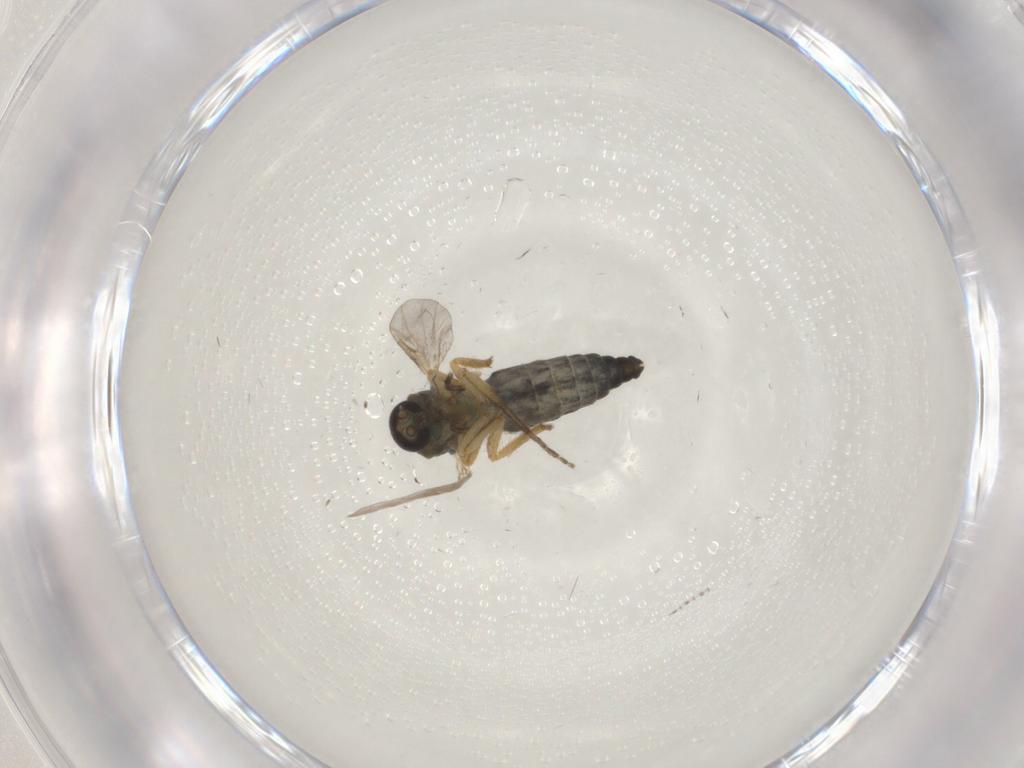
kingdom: Animalia
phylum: Arthropoda
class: Insecta
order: Diptera
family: Ceratopogonidae
